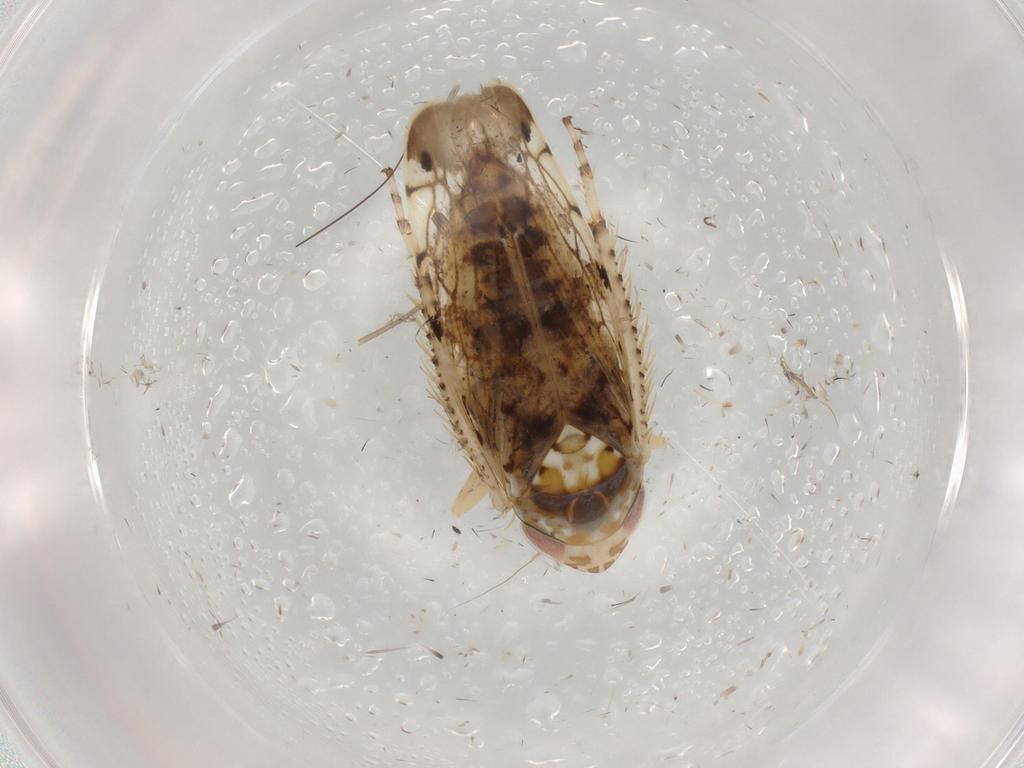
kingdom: Animalia
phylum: Arthropoda
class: Insecta
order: Hemiptera
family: Cicadellidae
